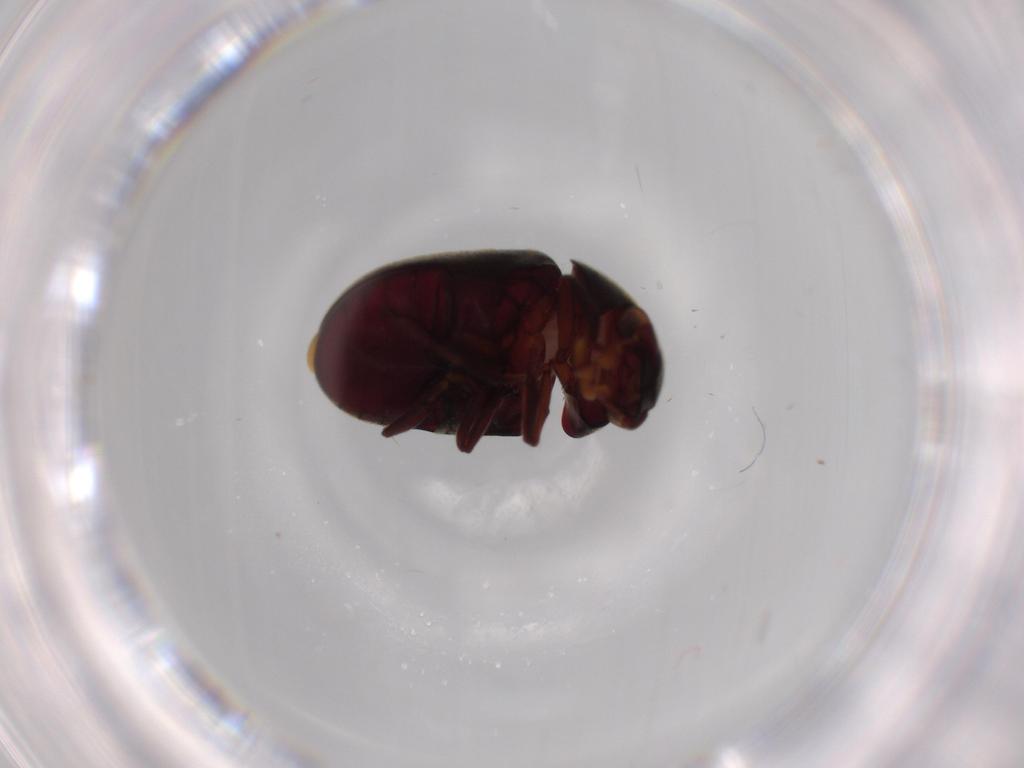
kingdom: Animalia
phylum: Arthropoda
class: Insecta
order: Coleoptera
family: Ptinidae
